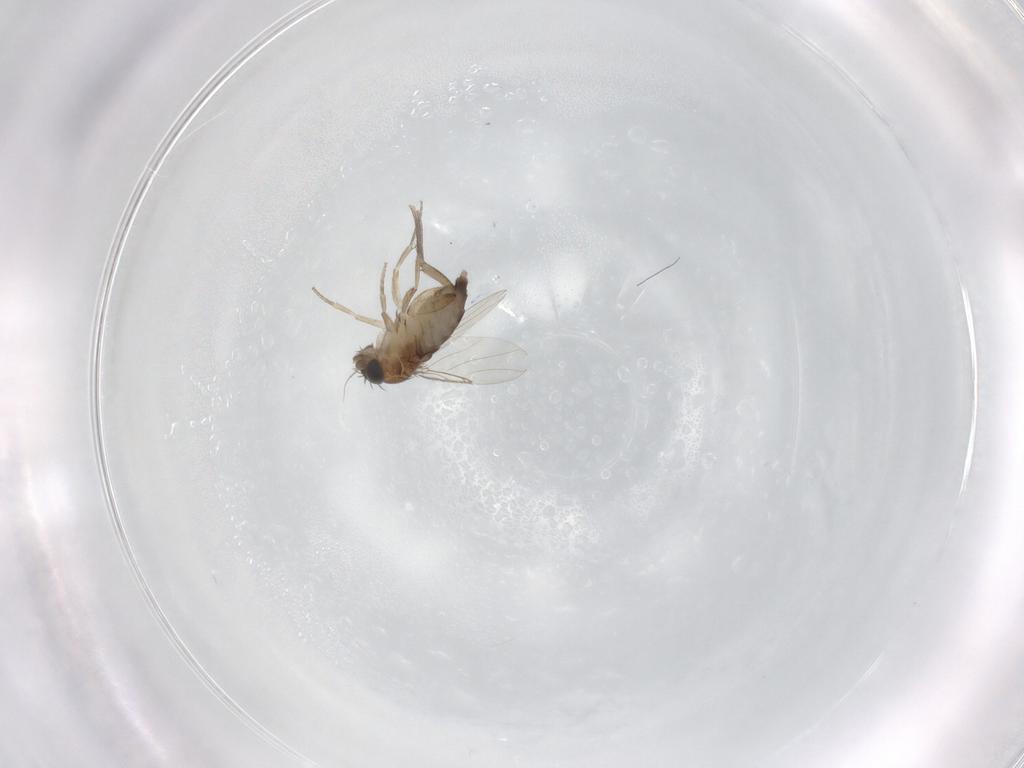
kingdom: Animalia
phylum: Arthropoda
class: Insecta
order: Diptera
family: Phoridae
